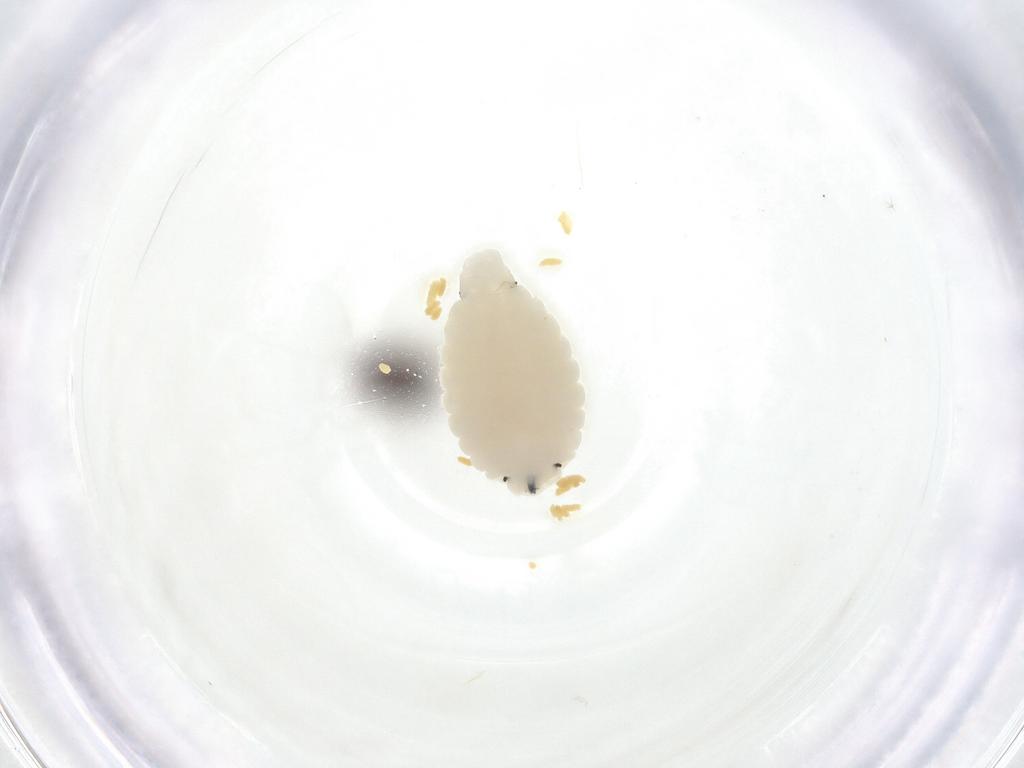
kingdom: Animalia
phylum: Arthropoda
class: Insecta
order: Diptera
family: Fergusoninidae
